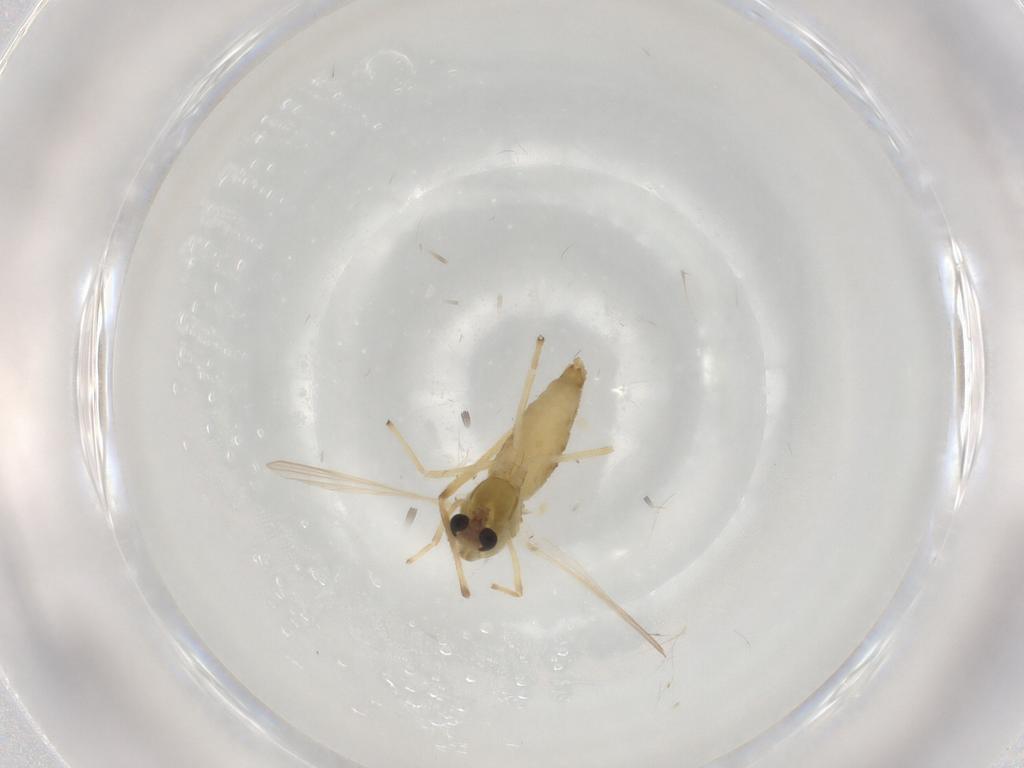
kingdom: Animalia
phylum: Arthropoda
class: Insecta
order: Diptera
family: Chironomidae
